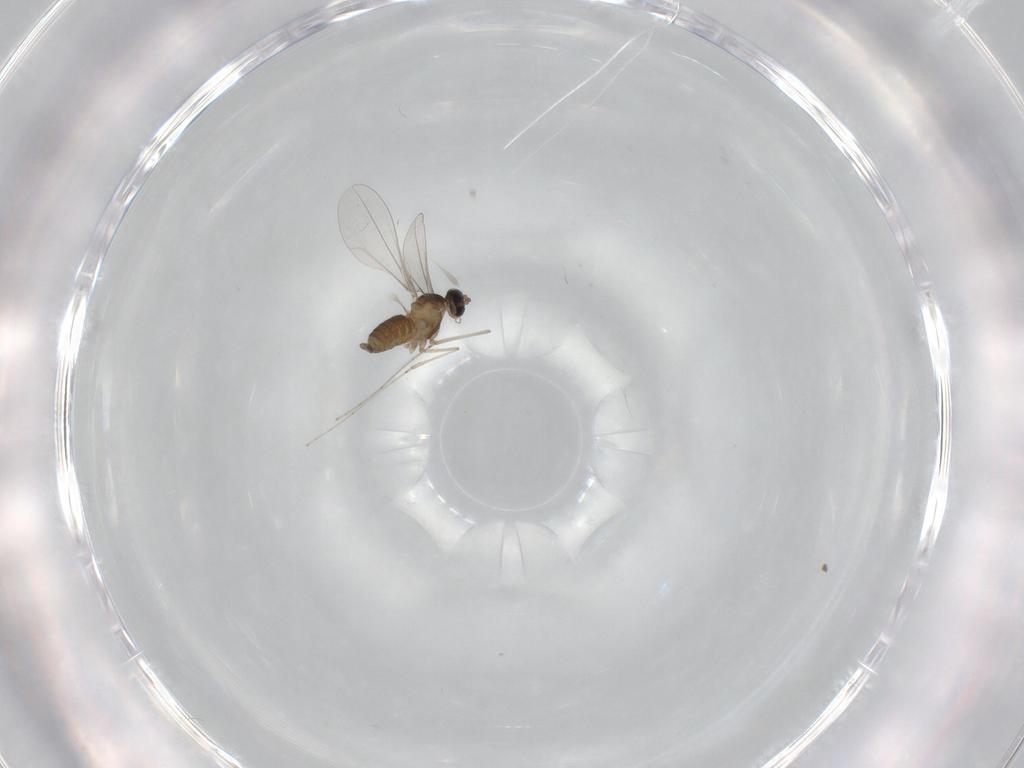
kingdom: Animalia
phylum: Arthropoda
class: Insecta
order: Diptera
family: Cecidomyiidae
